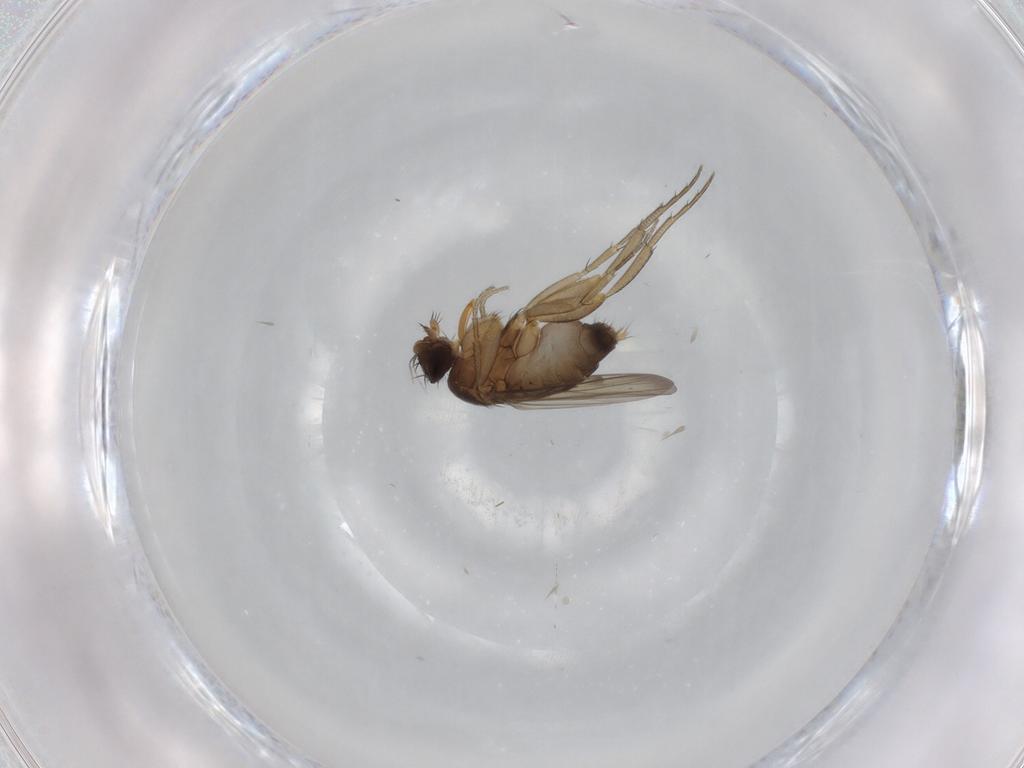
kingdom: Animalia
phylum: Arthropoda
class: Insecta
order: Diptera
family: Phoridae
